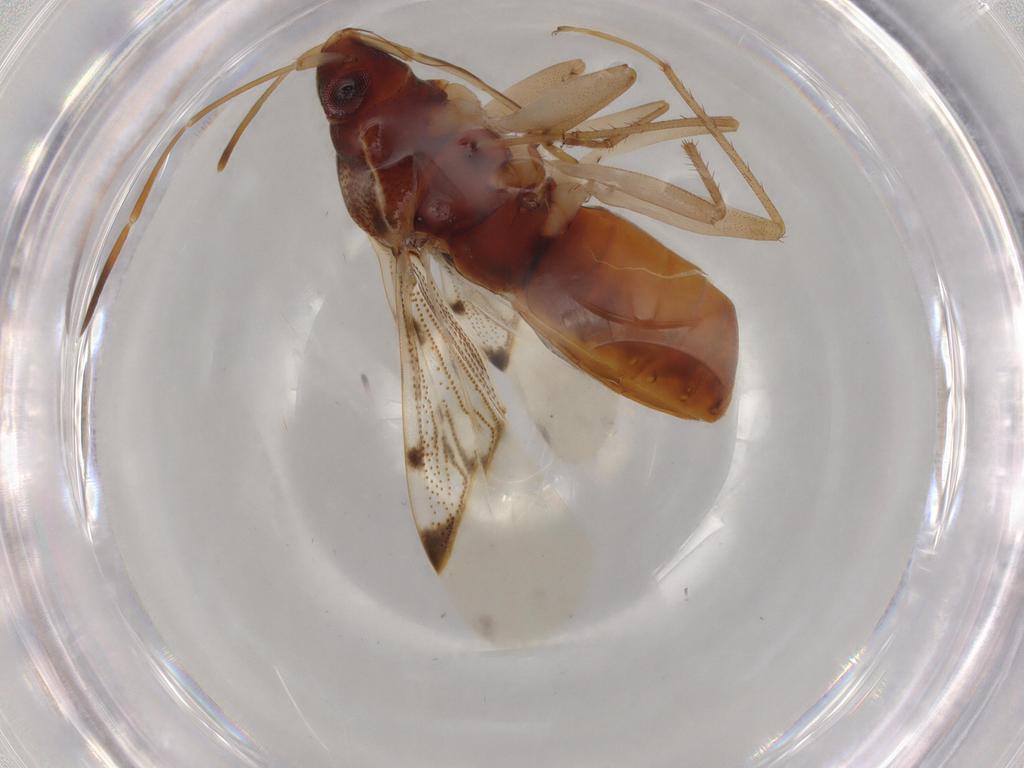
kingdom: Animalia
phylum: Arthropoda
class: Insecta
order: Hemiptera
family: Rhyparochromidae
